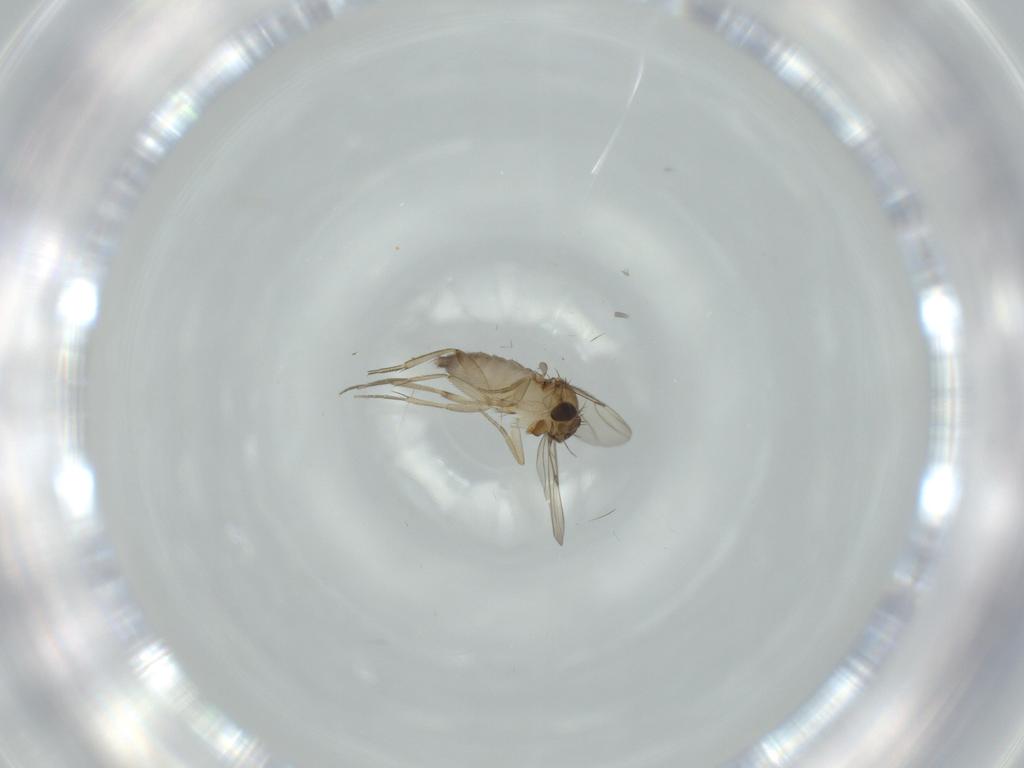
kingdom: Animalia
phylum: Arthropoda
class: Insecta
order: Diptera
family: Phoridae
